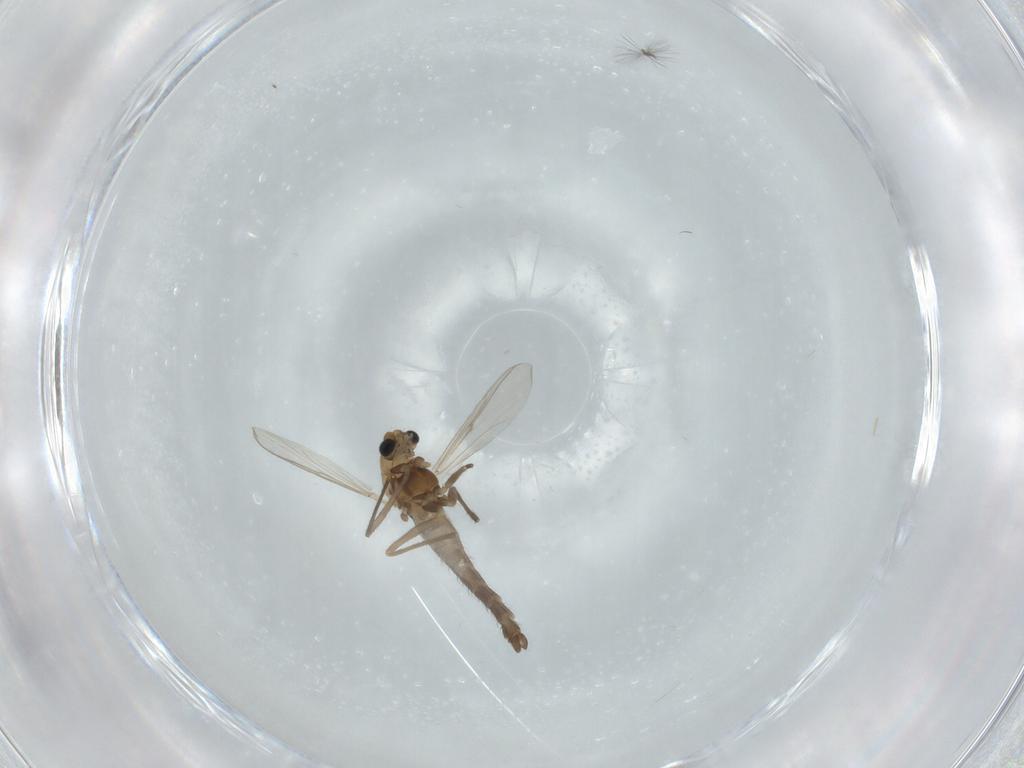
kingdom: Animalia
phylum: Arthropoda
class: Insecta
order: Diptera
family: Chironomidae
